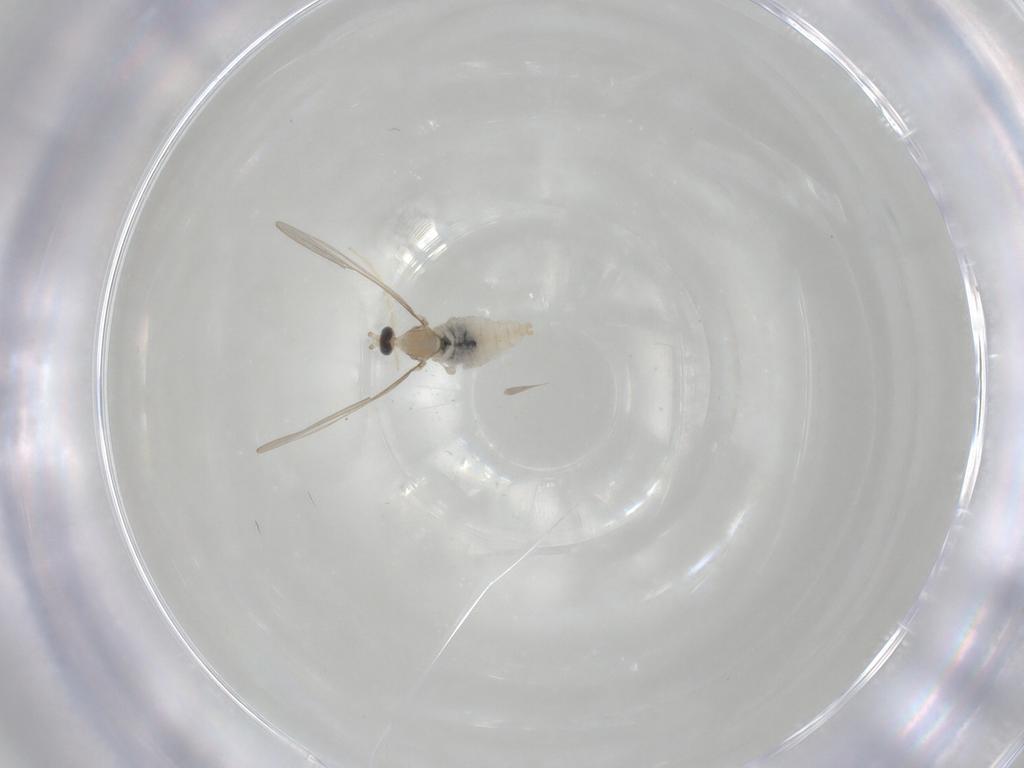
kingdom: Animalia
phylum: Arthropoda
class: Insecta
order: Diptera
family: Cecidomyiidae
